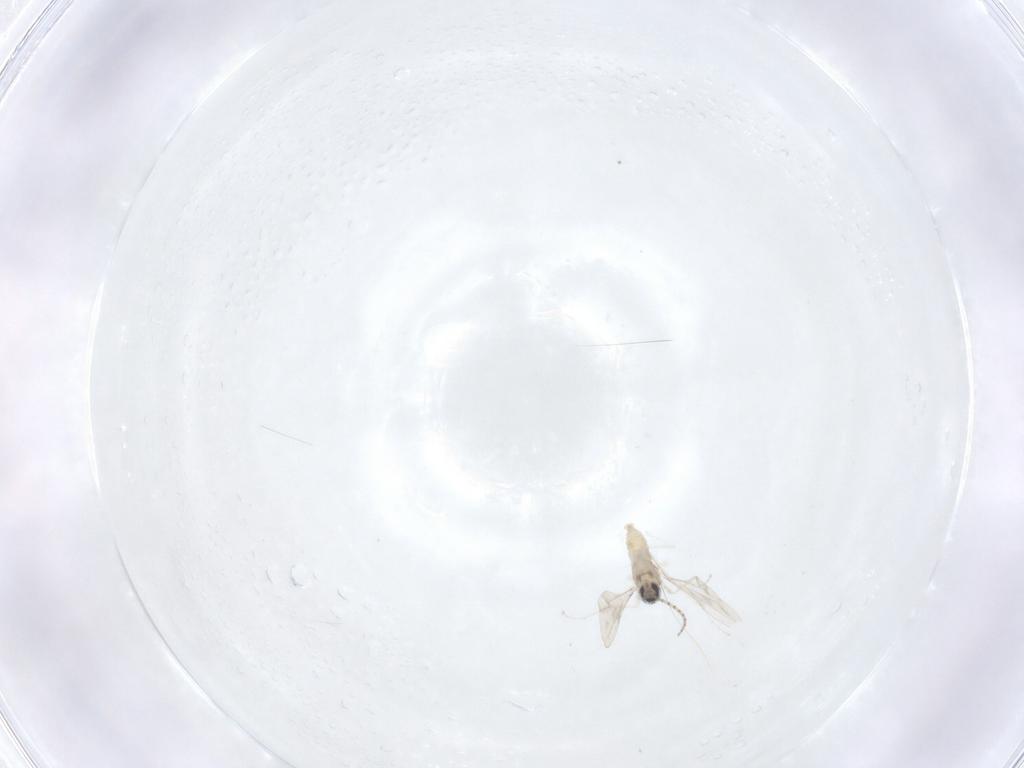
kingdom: Animalia
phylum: Arthropoda
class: Insecta
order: Diptera
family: Cecidomyiidae
